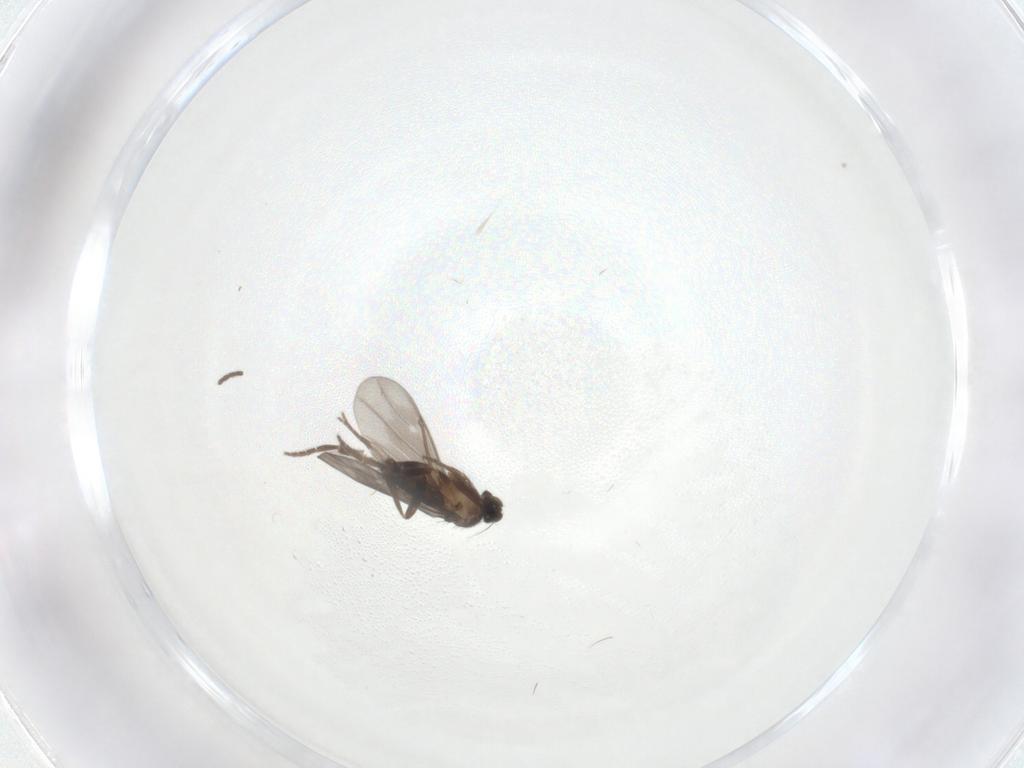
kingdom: Animalia
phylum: Arthropoda
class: Insecta
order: Diptera
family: Sciaridae
